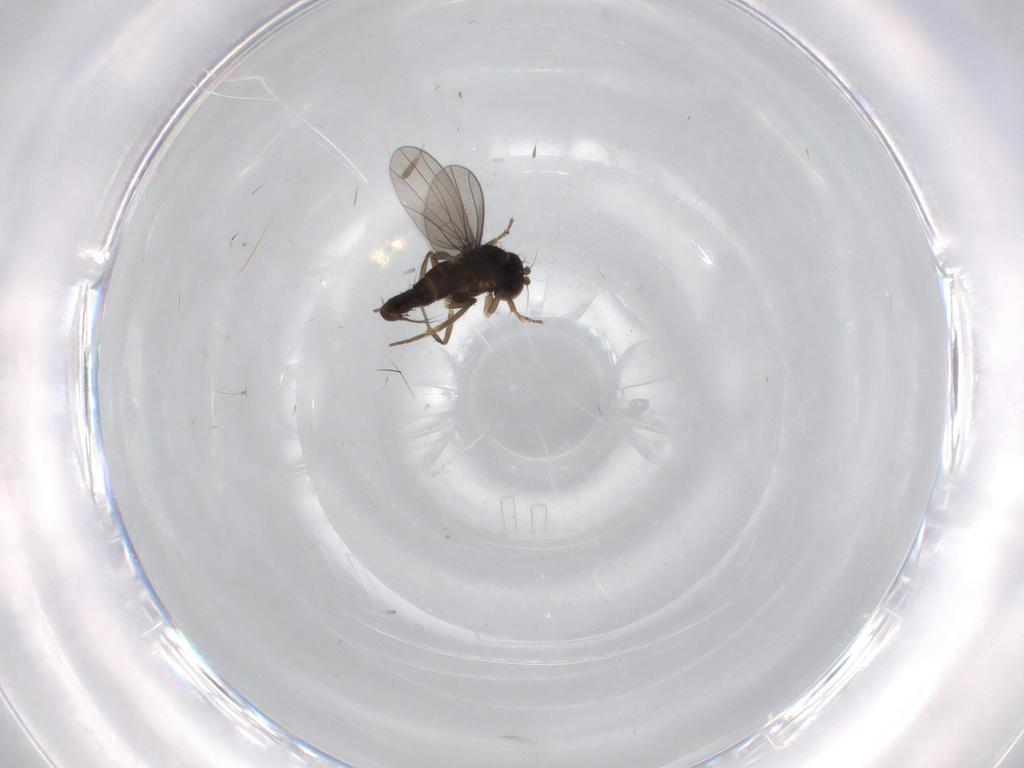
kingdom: Animalia
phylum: Arthropoda
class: Insecta
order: Diptera
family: Dolichopodidae
